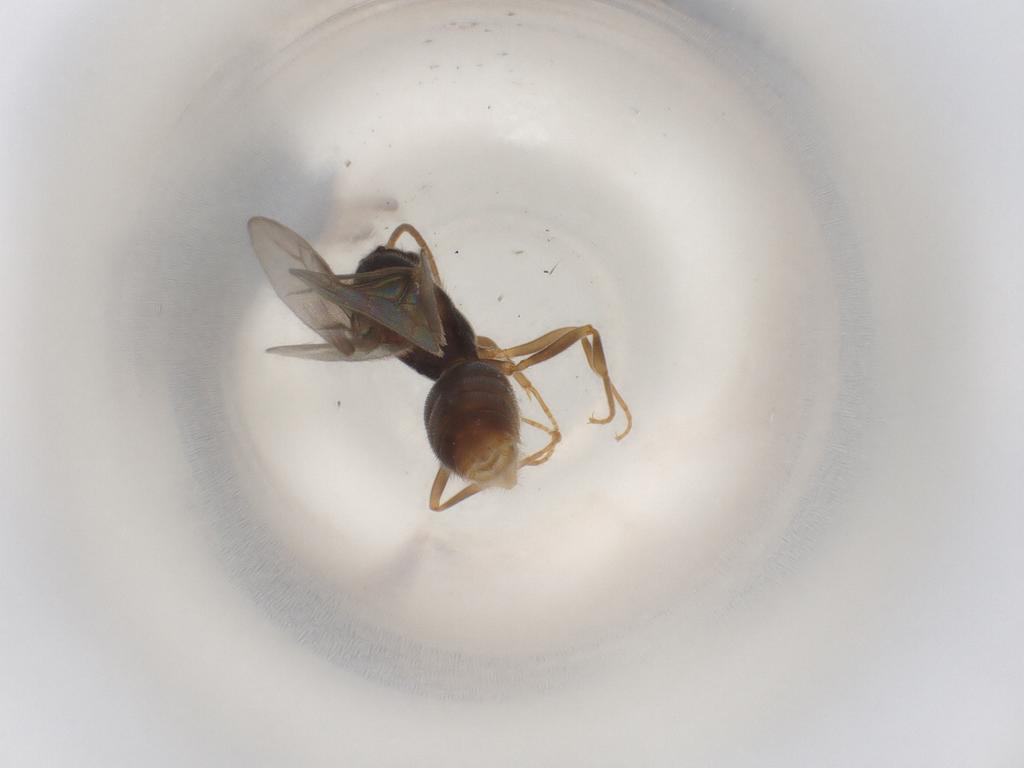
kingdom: Animalia
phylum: Arthropoda
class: Insecta
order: Hymenoptera
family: Formicidae
